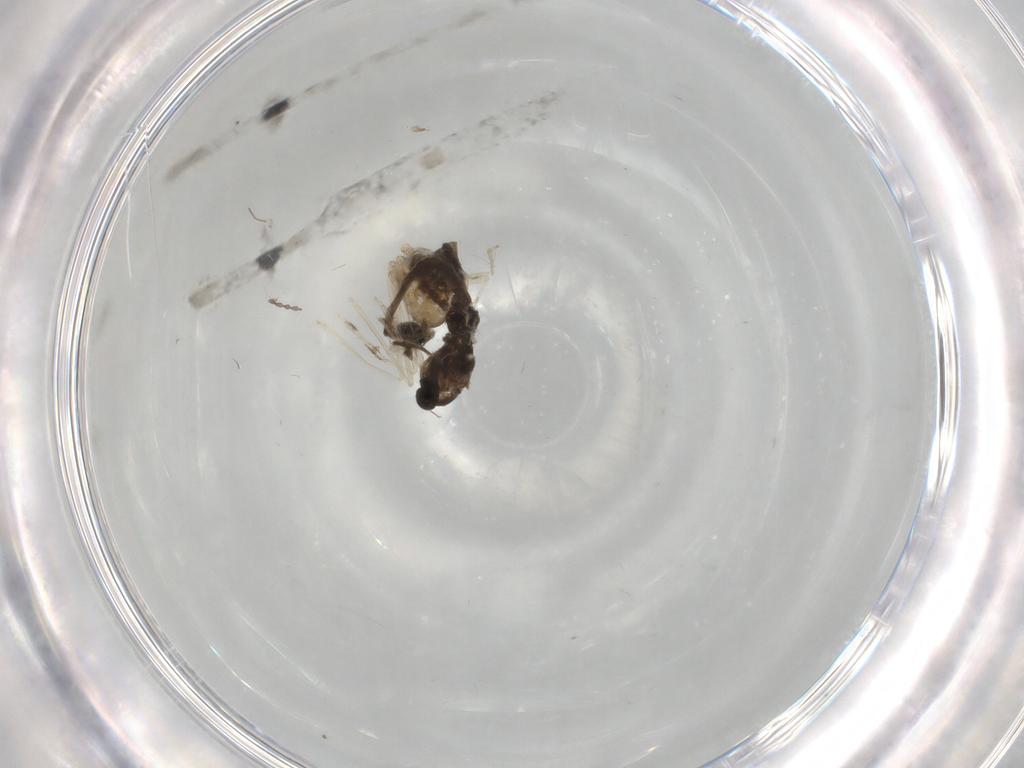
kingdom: Animalia
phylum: Arthropoda
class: Insecta
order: Diptera
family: Cecidomyiidae
